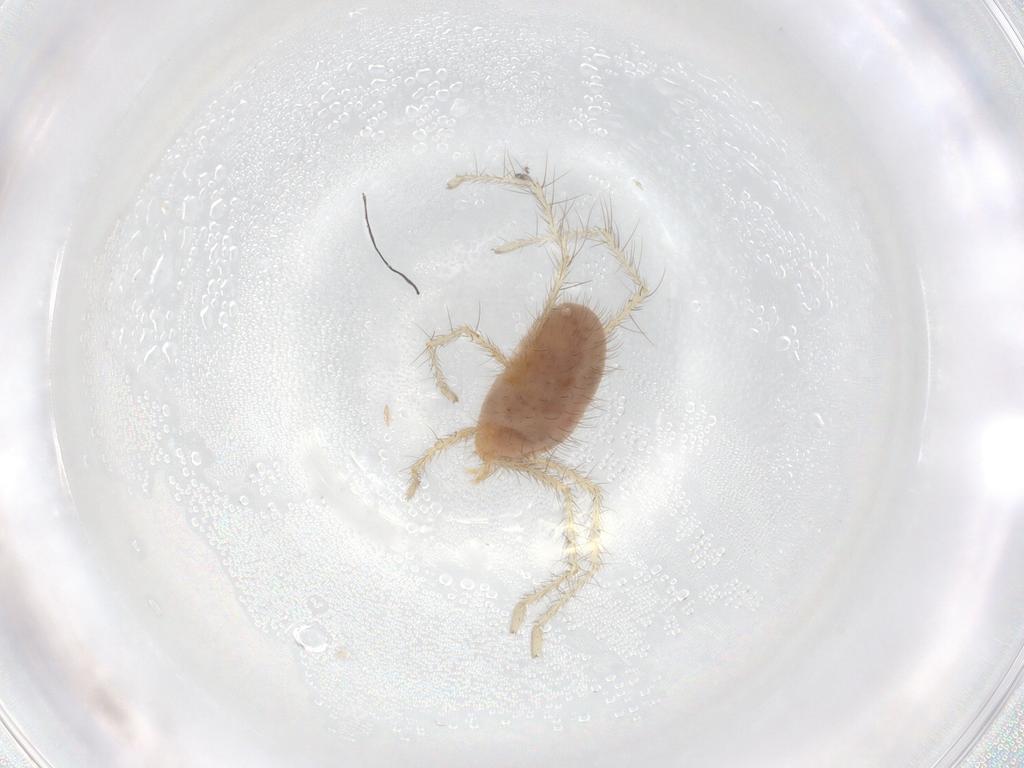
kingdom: Animalia
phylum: Arthropoda
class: Arachnida
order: Trombidiformes
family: Erythraeidae
